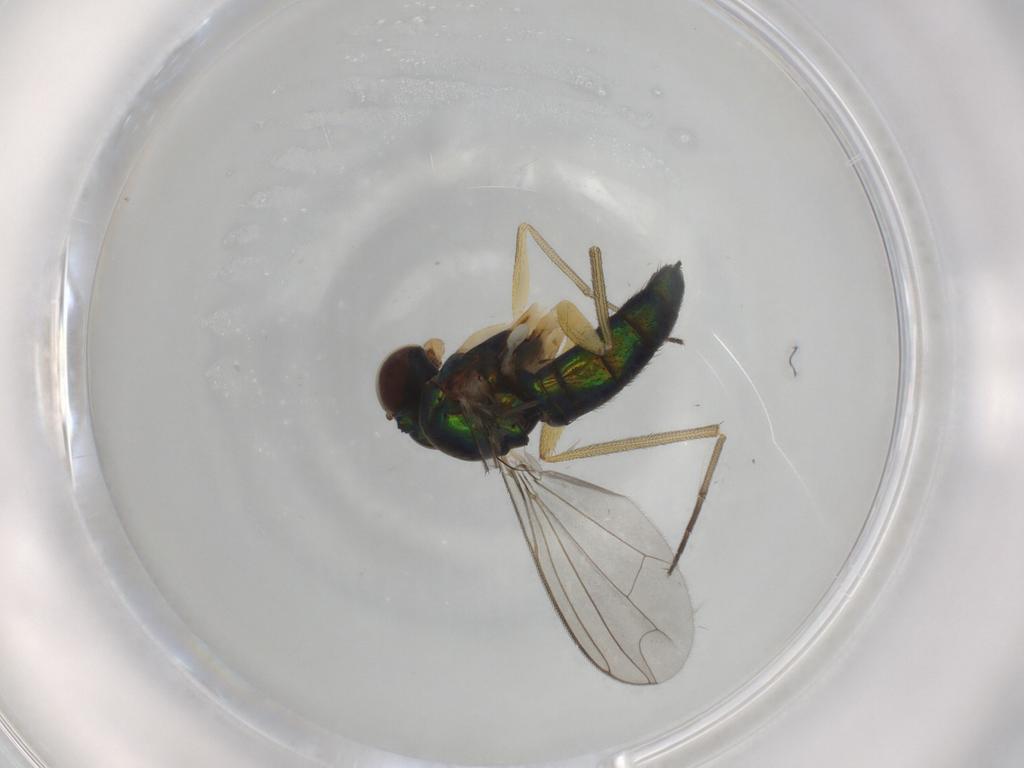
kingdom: Animalia
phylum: Arthropoda
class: Insecta
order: Diptera
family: Dolichopodidae
